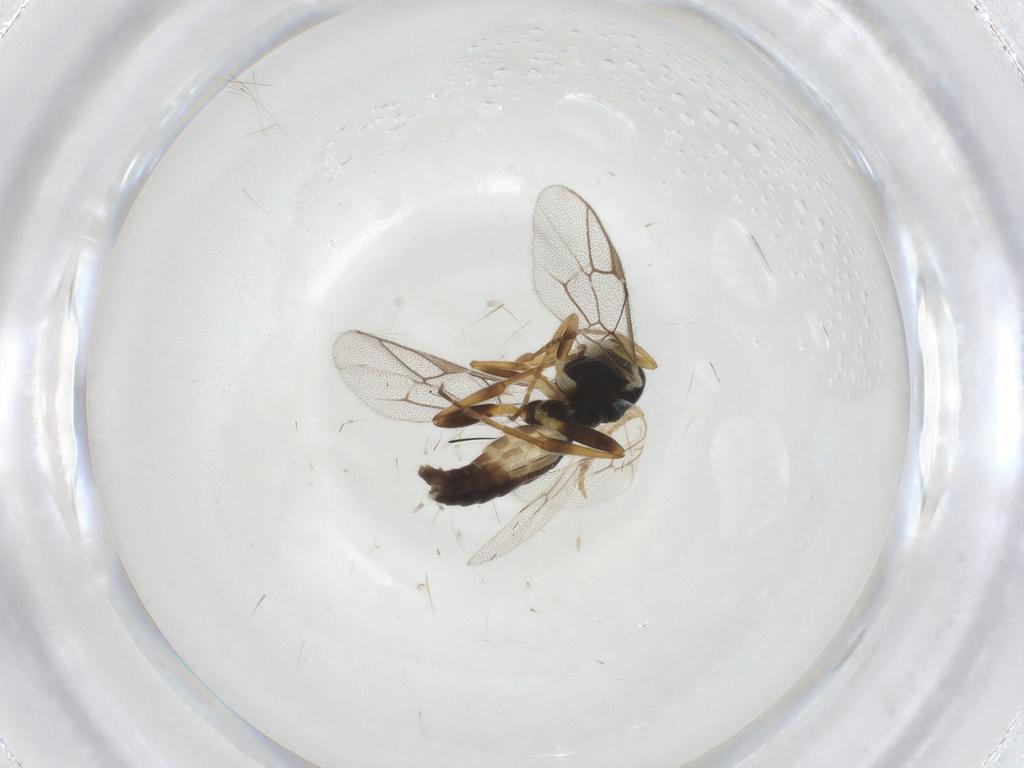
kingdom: Animalia
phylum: Arthropoda
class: Insecta
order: Hymenoptera
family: Ichneumonidae
